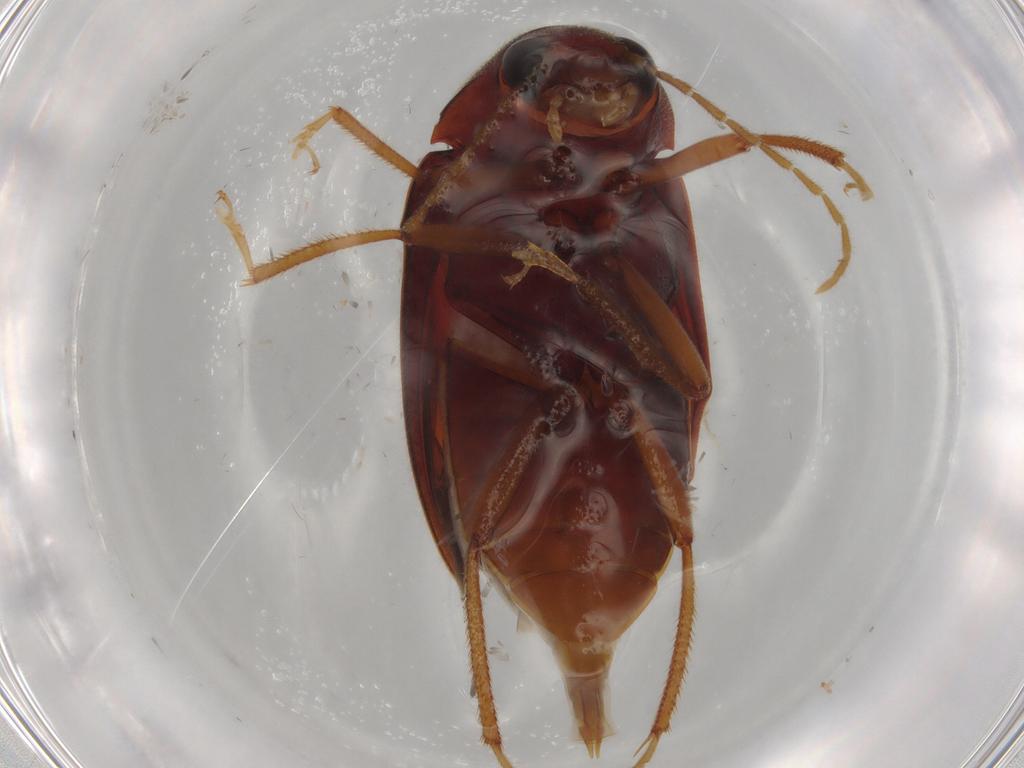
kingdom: Animalia
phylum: Arthropoda
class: Insecta
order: Coleoptera
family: Ptilodactylidae
